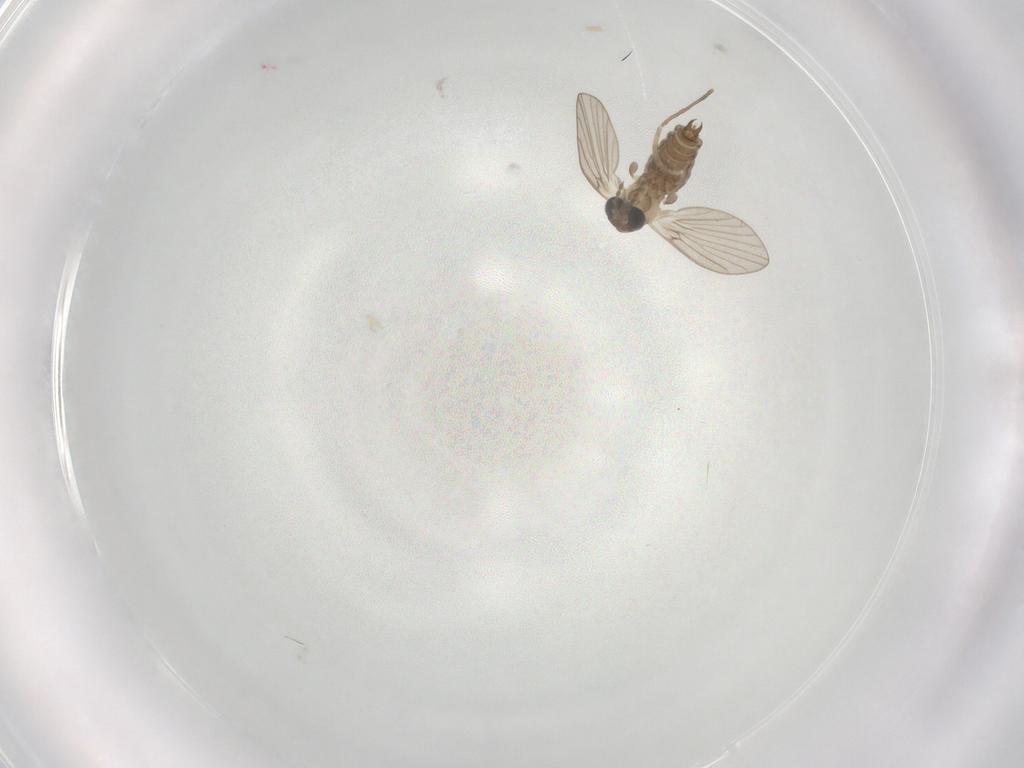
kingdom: Animalia
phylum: Arthropoda
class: Insecta
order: Diptera
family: Psychodidae
